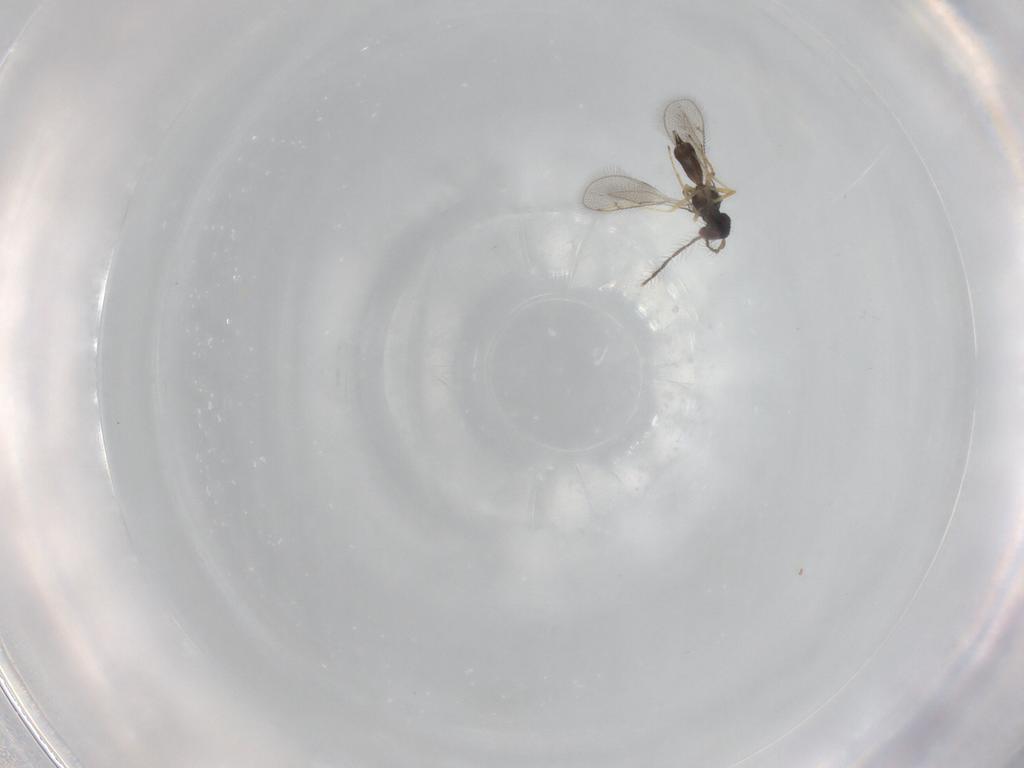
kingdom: Animalia
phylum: Arthropoda
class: Insecta
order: Hymenoptera
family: Eulophidae
